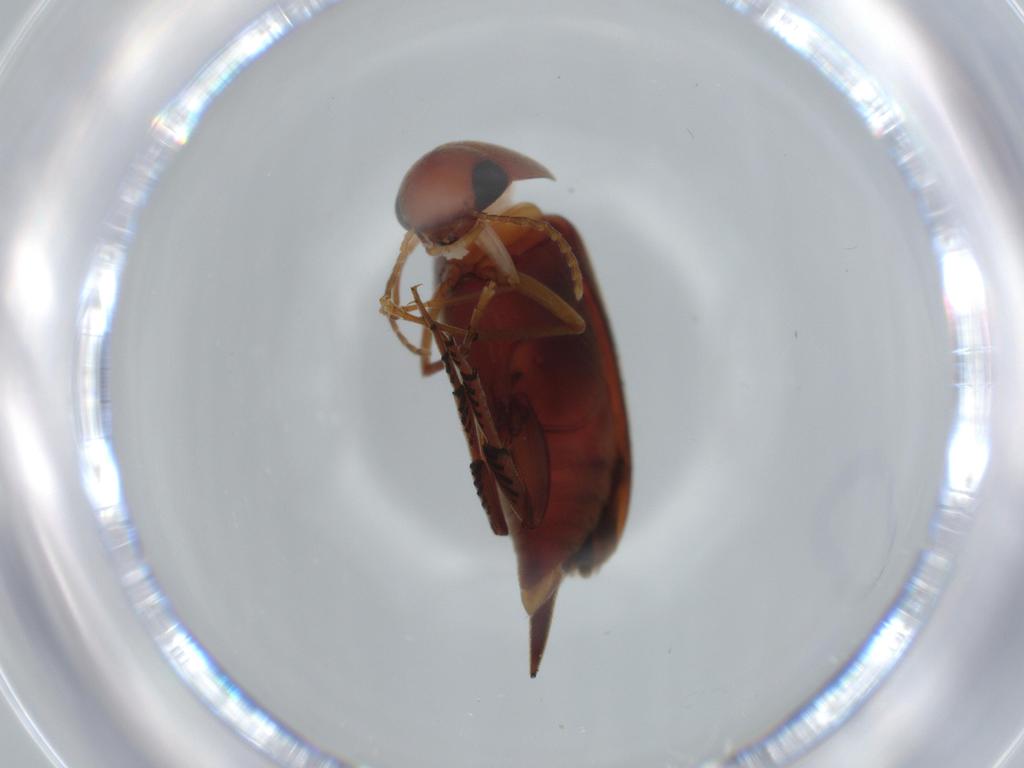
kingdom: Animalia
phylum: Arthropoda
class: Insecta
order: Coleoptera
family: Mordellidae
